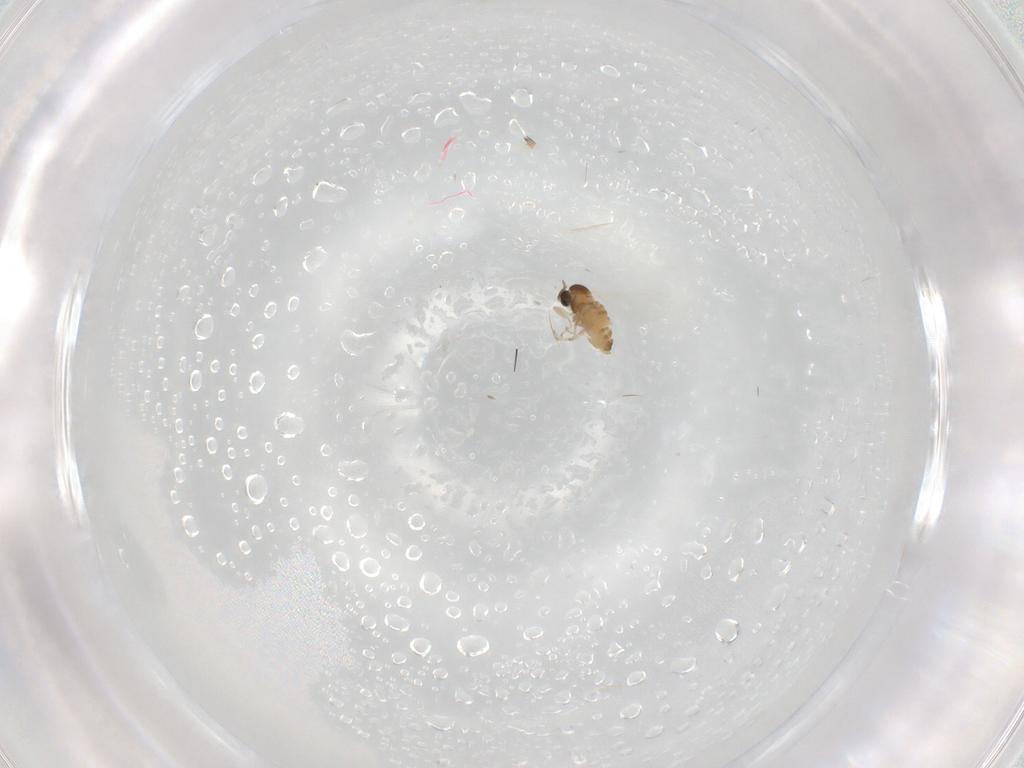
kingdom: Animalia
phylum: Arthropoda
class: Insecta
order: Diptera
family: Cecidomyiidae
